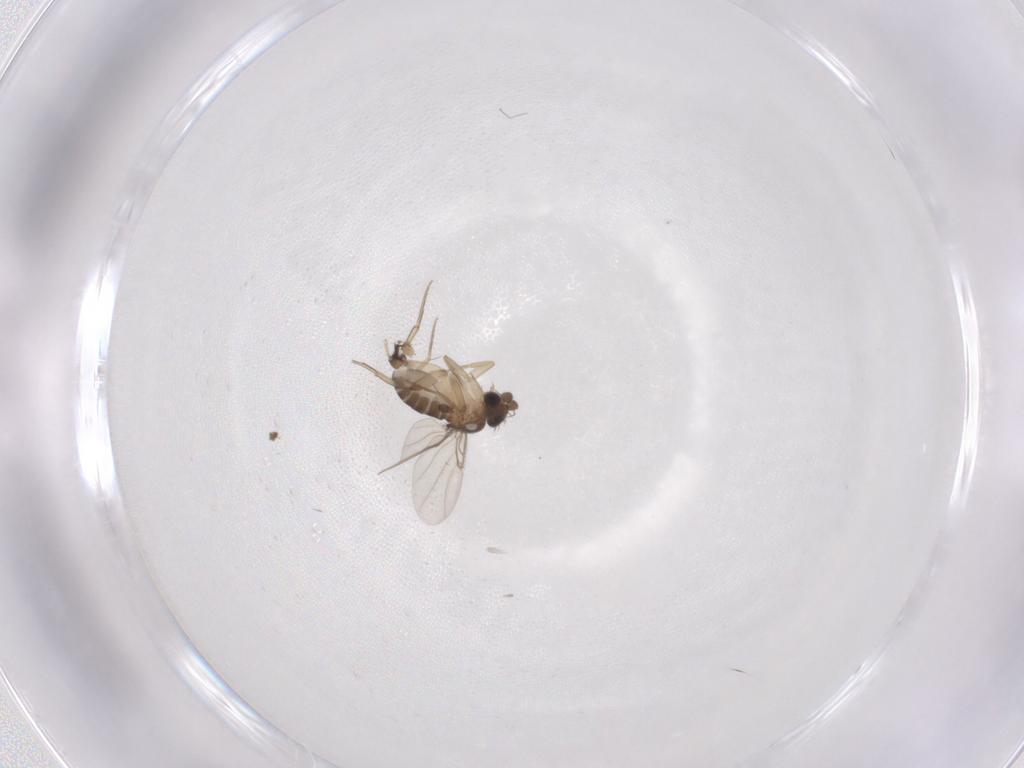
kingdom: Animalia
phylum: Arthropoda
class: Insecta
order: Diptera
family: Phoridae
